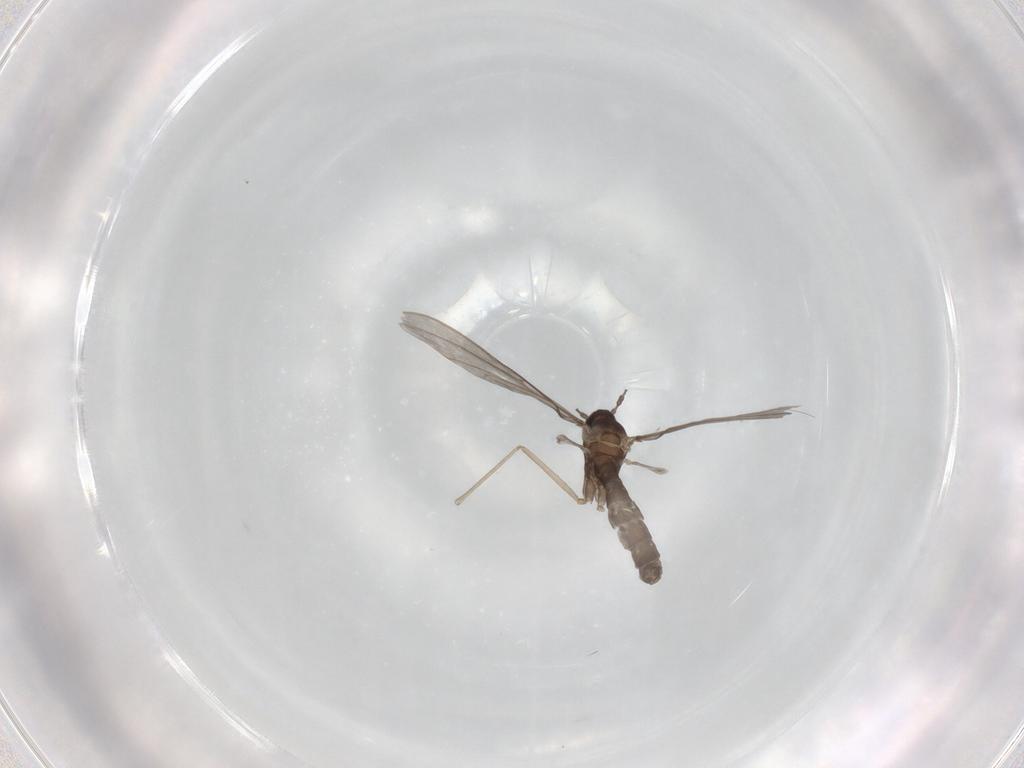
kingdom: Animalia
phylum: Arthropoda
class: Insecta
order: Diptera
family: Cecidomyiidae
